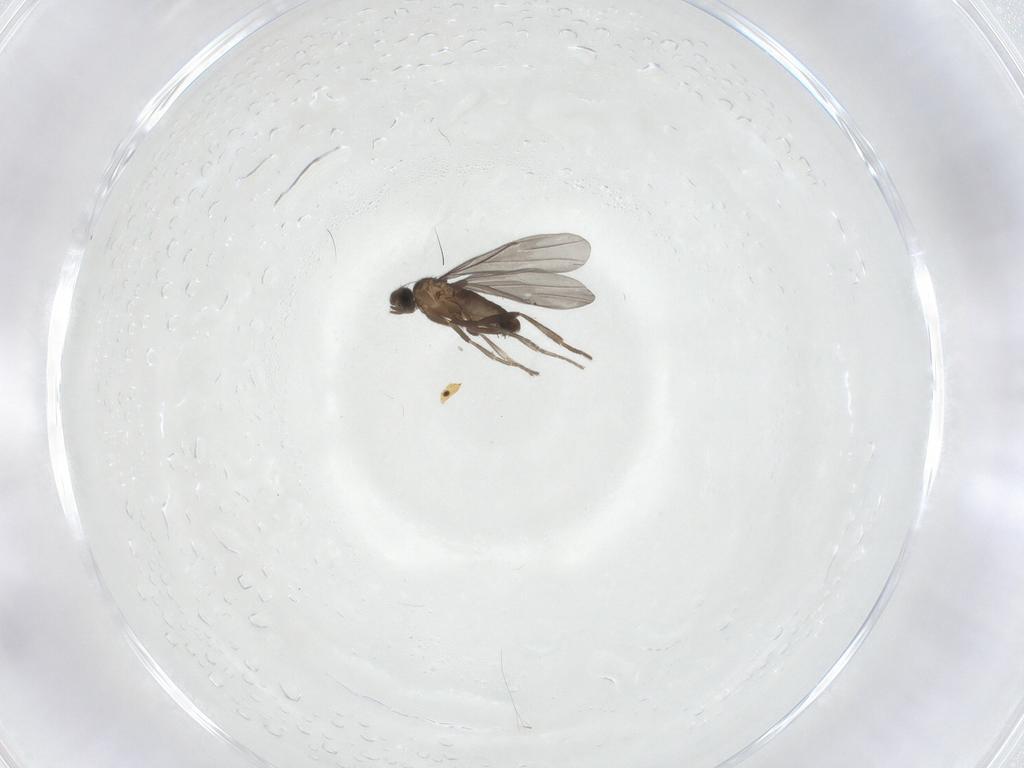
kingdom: Animalia
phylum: Arthropoda
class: Insecta
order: Diptera
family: Phoridae
